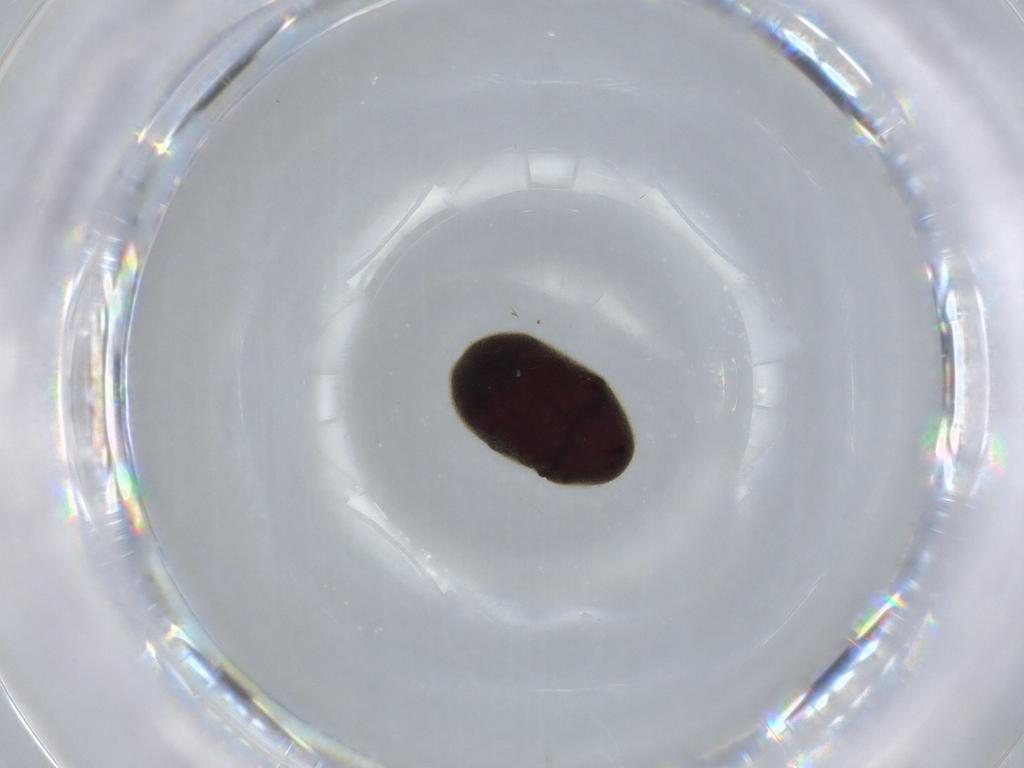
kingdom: Animalia
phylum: Arthropoda
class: Insecta
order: Coleoptera
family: Ptinidae
